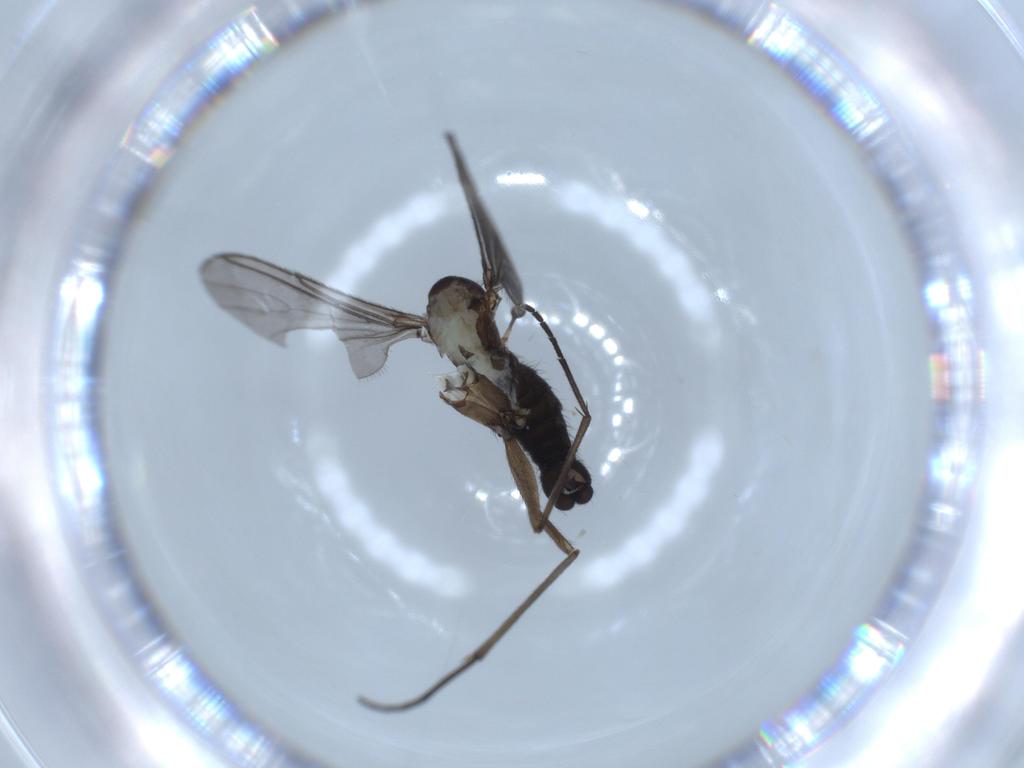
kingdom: Animalia
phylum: Arthropoda
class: Insecta
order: Diptera
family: Sciaridae
